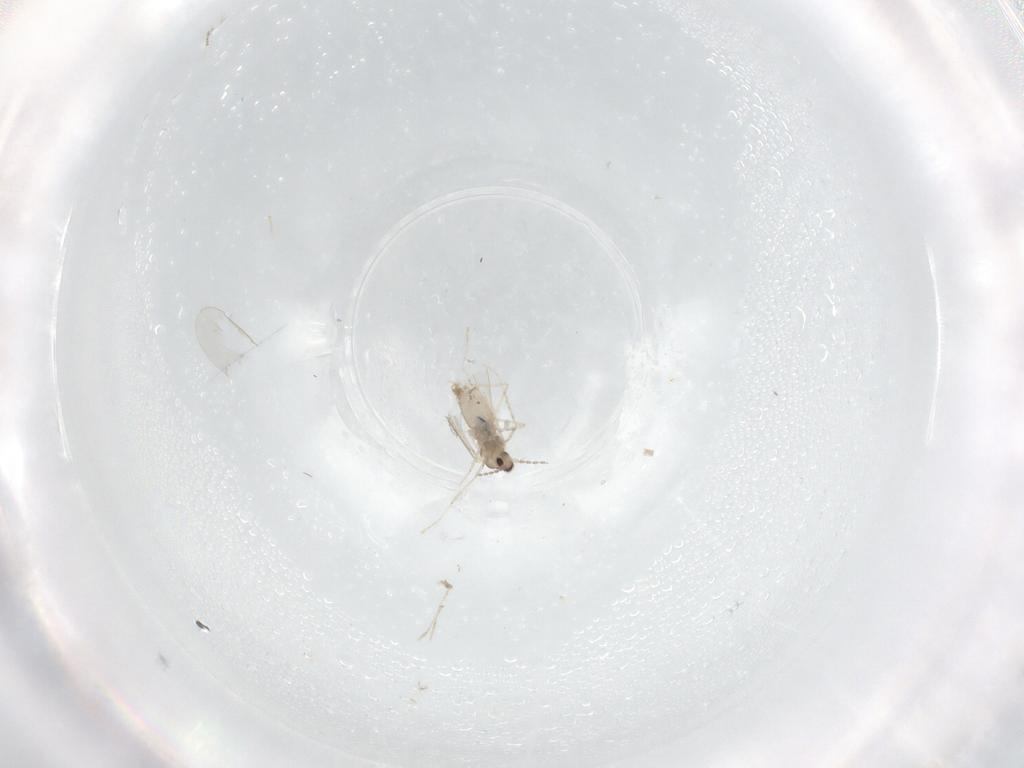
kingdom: Animalia
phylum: Arthropoda
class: Insecta
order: Diptera
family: Cecidomyiidae
